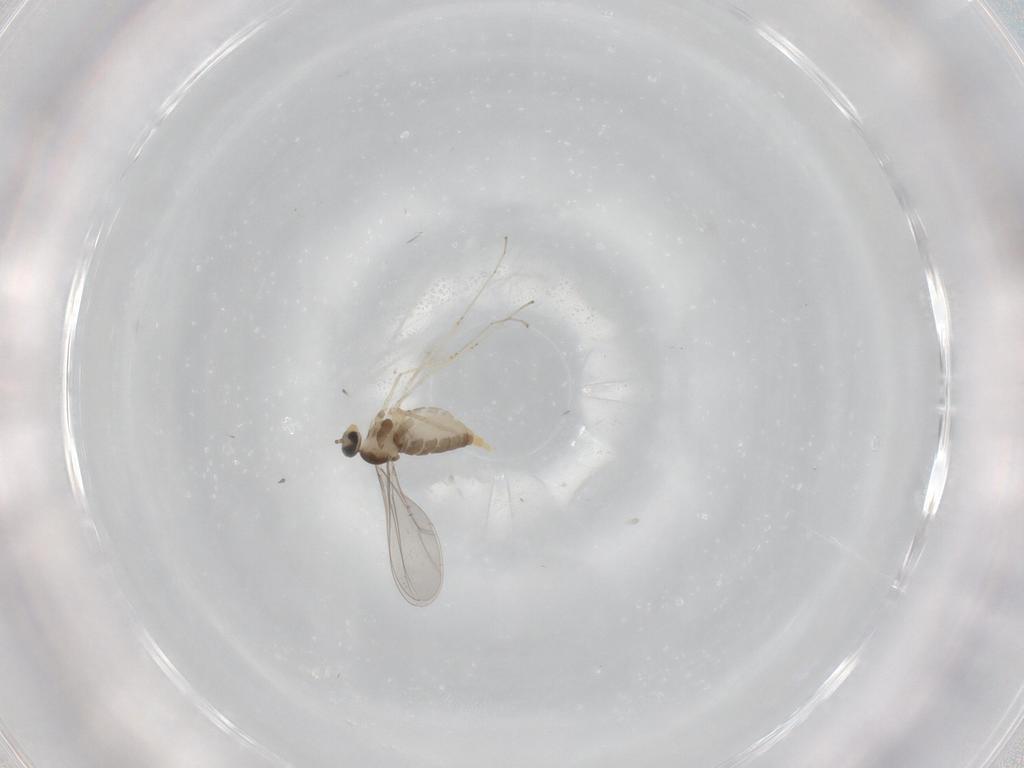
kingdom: Animalia
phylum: Arthropoda
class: Insecta
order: Diptera
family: Cecidomyiidae
